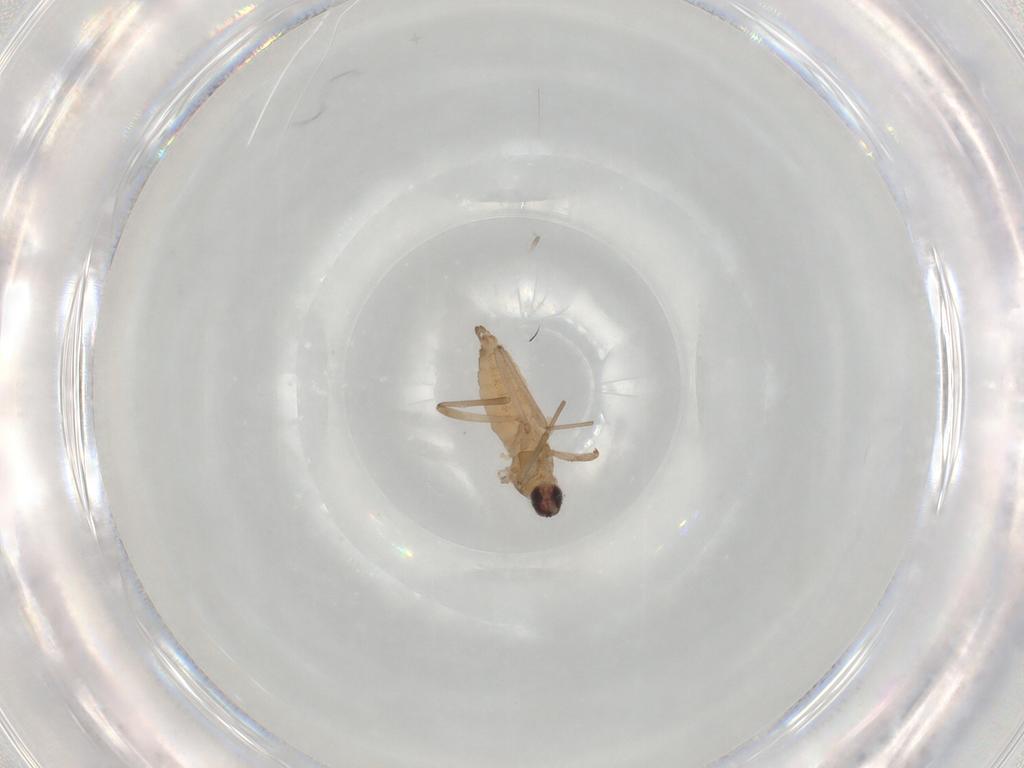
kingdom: Animalia
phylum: Arthropoda
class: Insecta
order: Diptera
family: Cecidomyiidae
